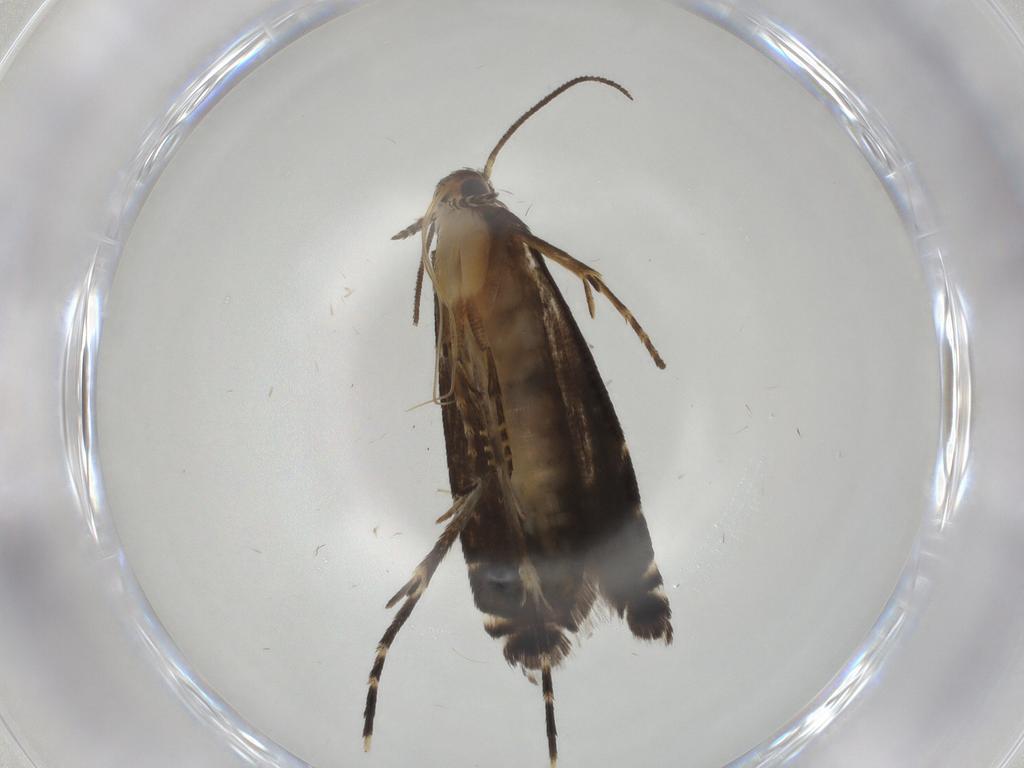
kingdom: Animalia
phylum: Arthropoda
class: Insecta
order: Lepidoptera
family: Glyphipterigidae
